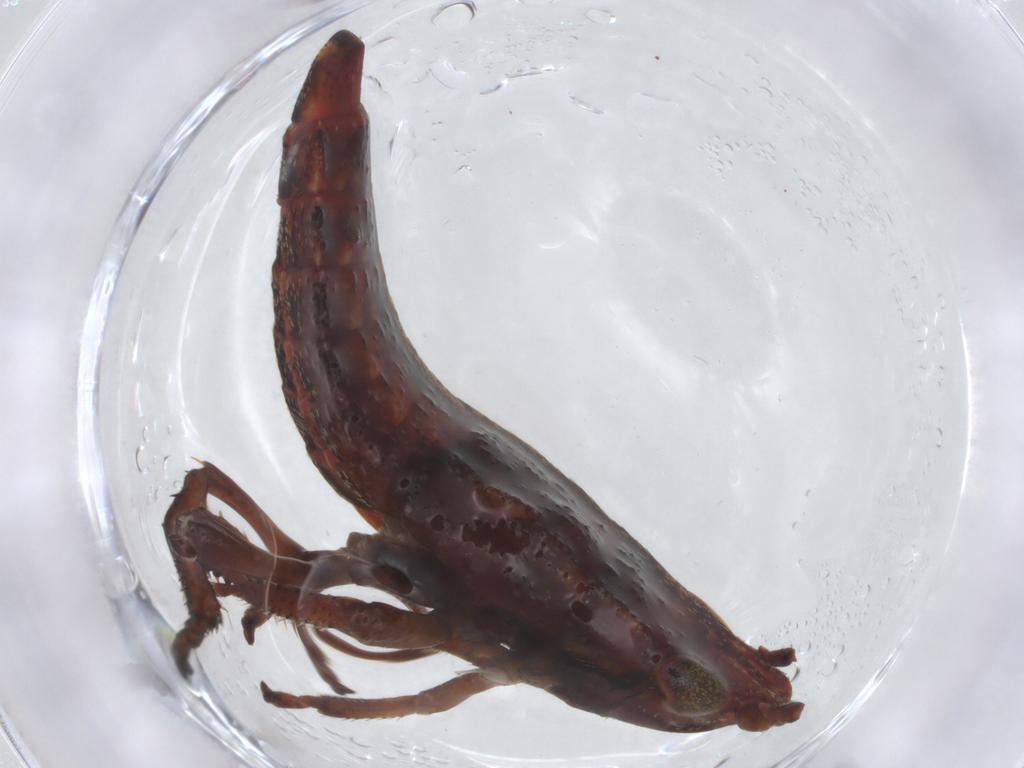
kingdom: Animalia
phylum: Arthropoda
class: Insecta
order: Hemiptera
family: Cicadellidae
